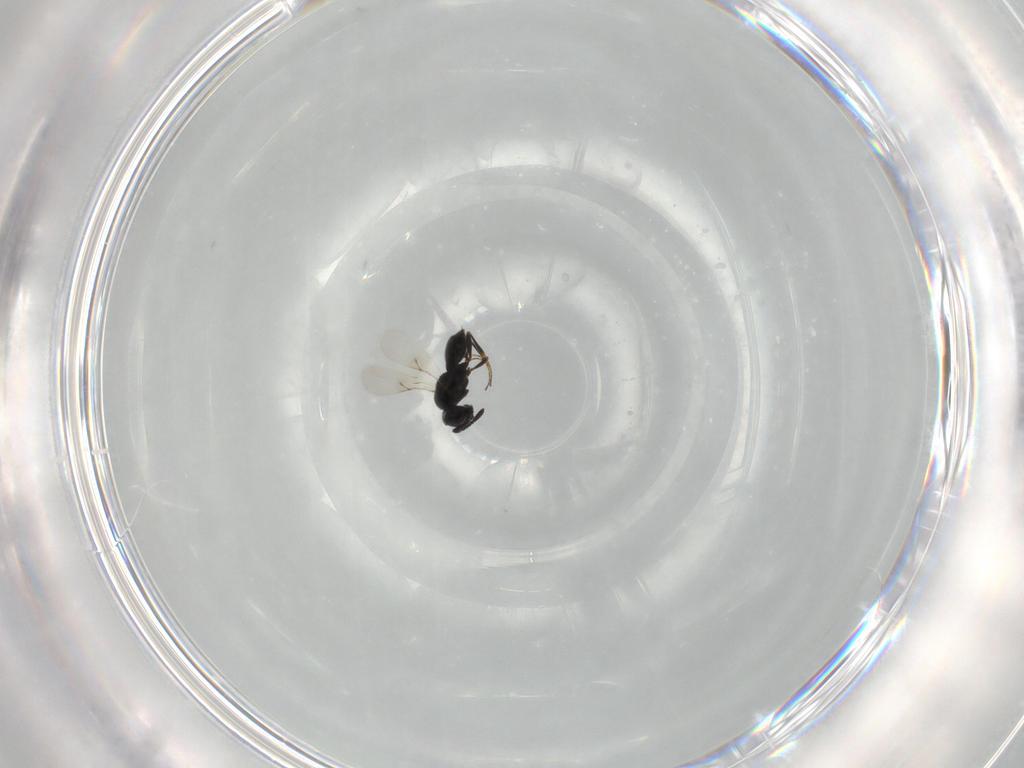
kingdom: Animalia
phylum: Arthropoda
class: Insecta
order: Hymenoptera
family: Scelionidae
